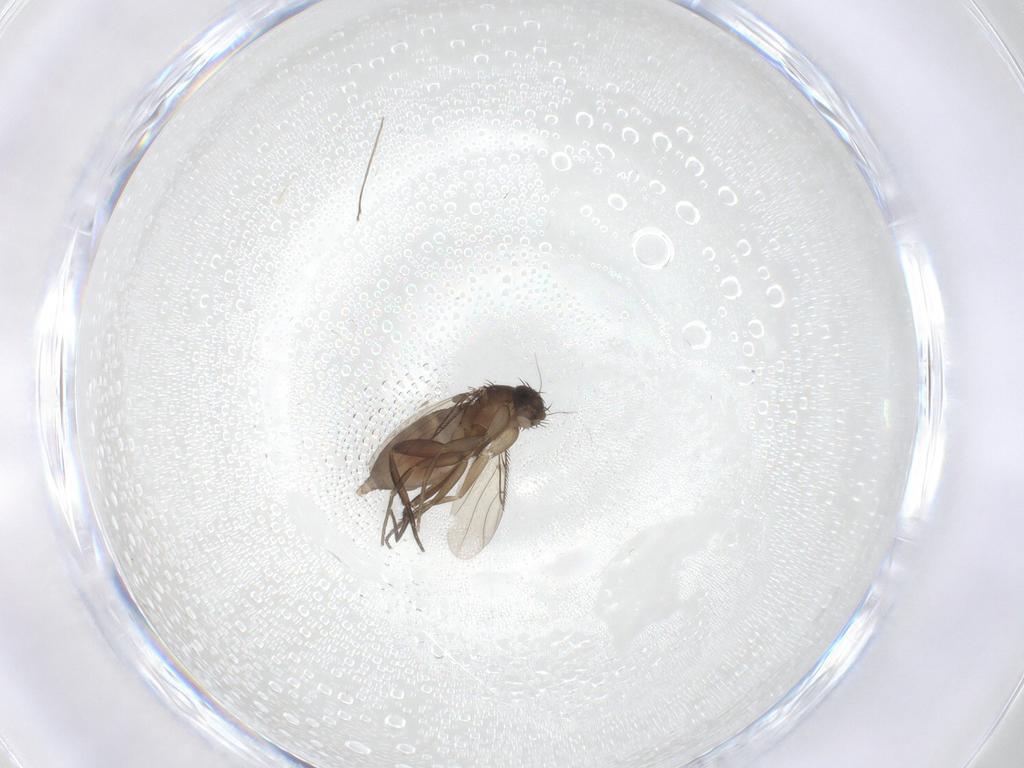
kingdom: Animalia
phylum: Arthropoda
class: Insecta
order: Diptera
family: Phoridae
